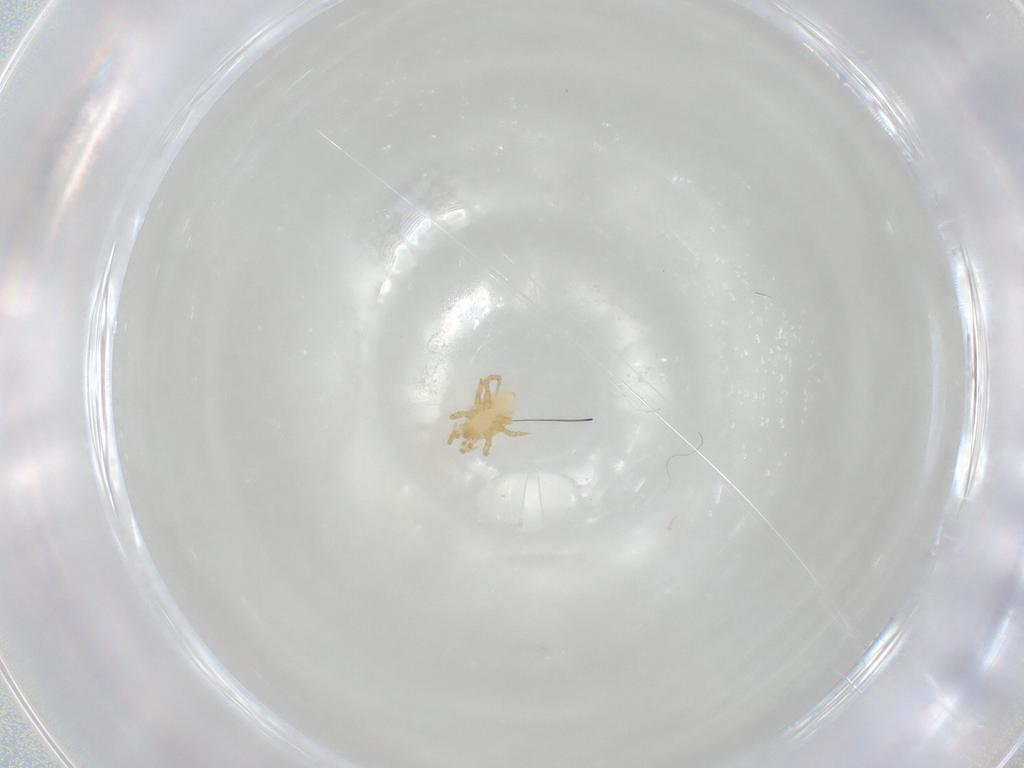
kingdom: Animalia
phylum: Arthropoda
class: Arachnida
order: Mesostigmata
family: Parasitidae
